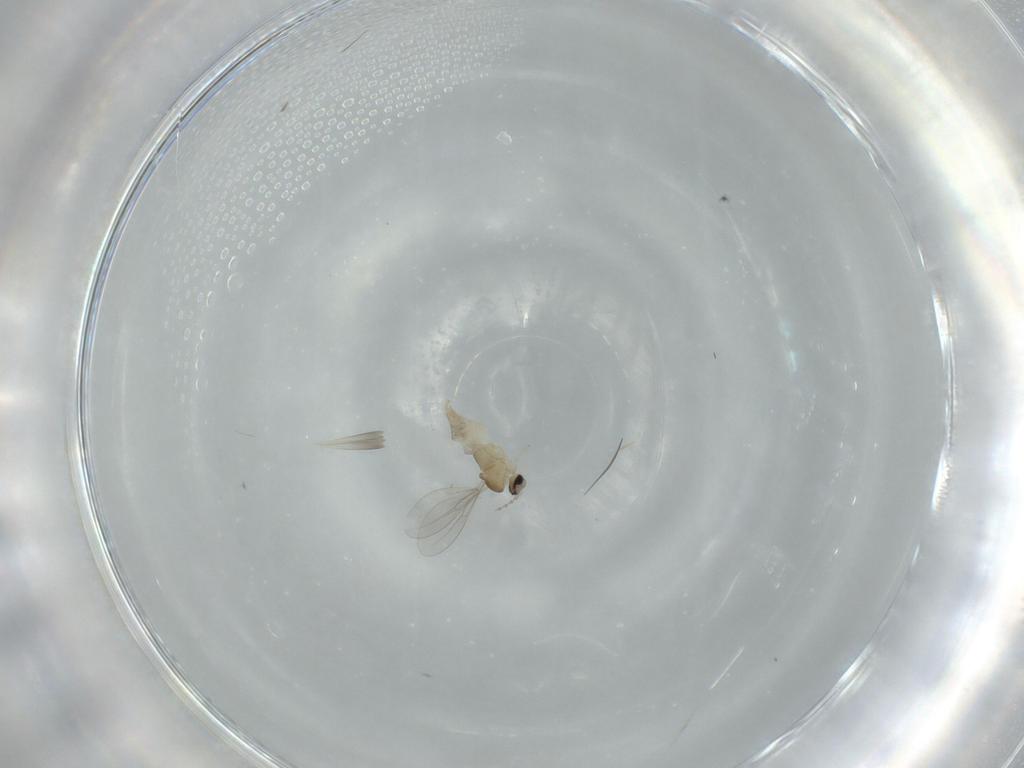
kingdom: Animalia
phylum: Arthropoda
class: Insecta
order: Diptera
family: Cecidomyiidae
